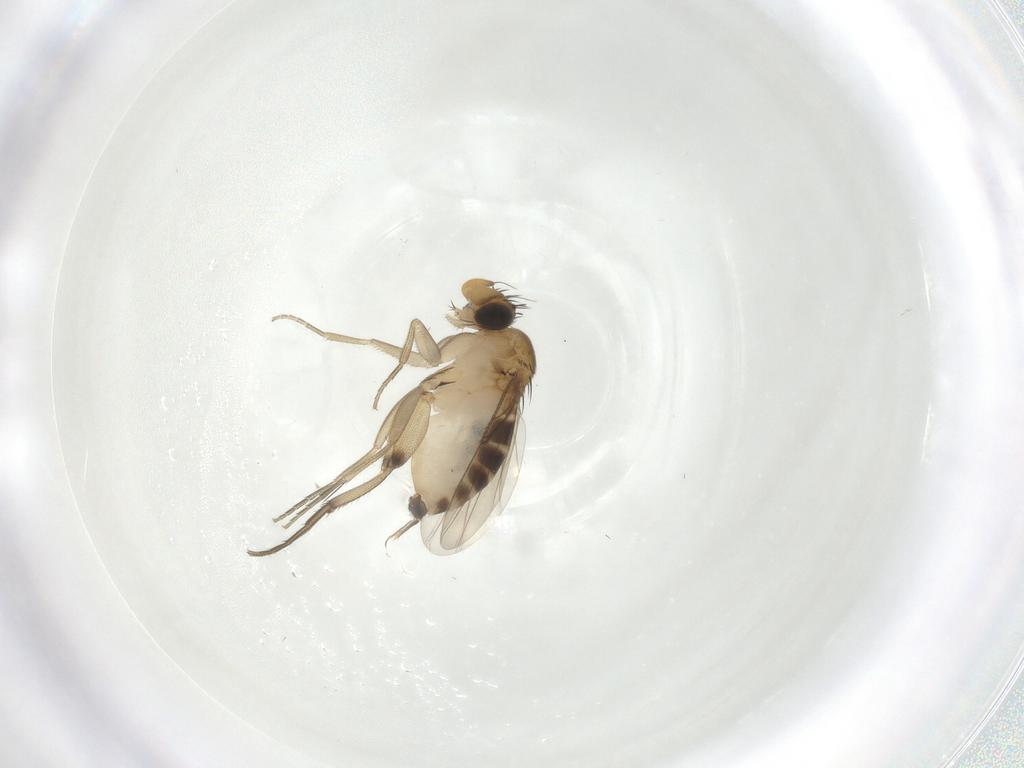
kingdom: Animalia
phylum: Arthropoda
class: Insecta
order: Diptera
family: Phoridae
